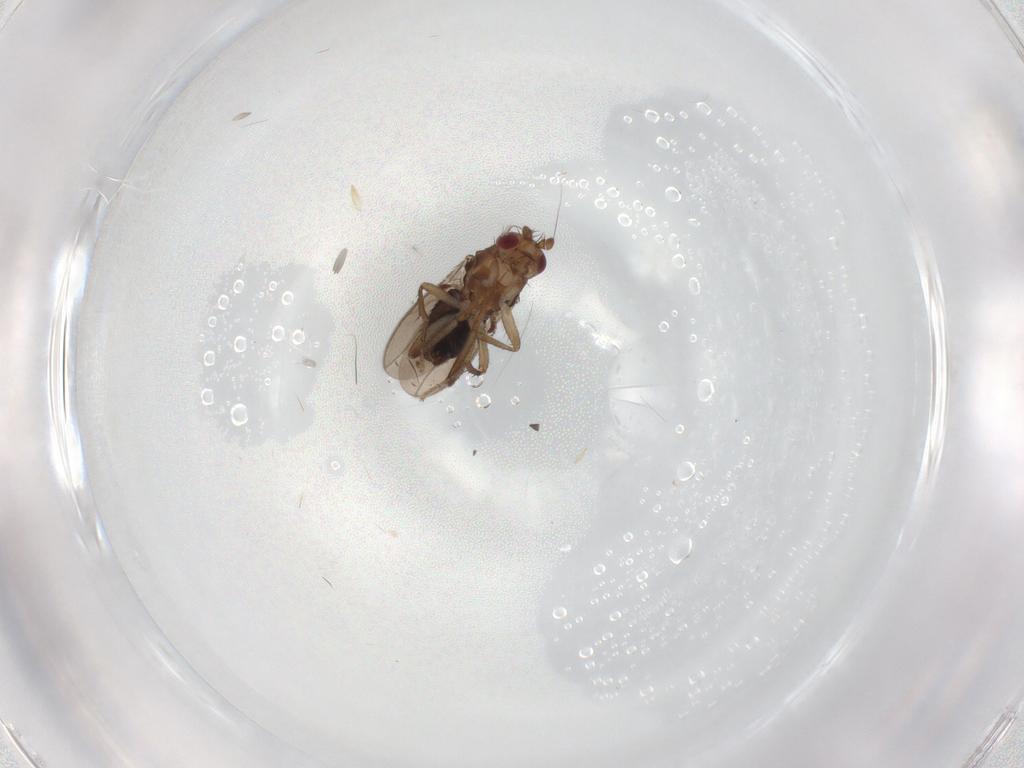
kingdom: Animalia
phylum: Arthropoda
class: Insecta
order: Diptera
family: Sphaeroceridae
